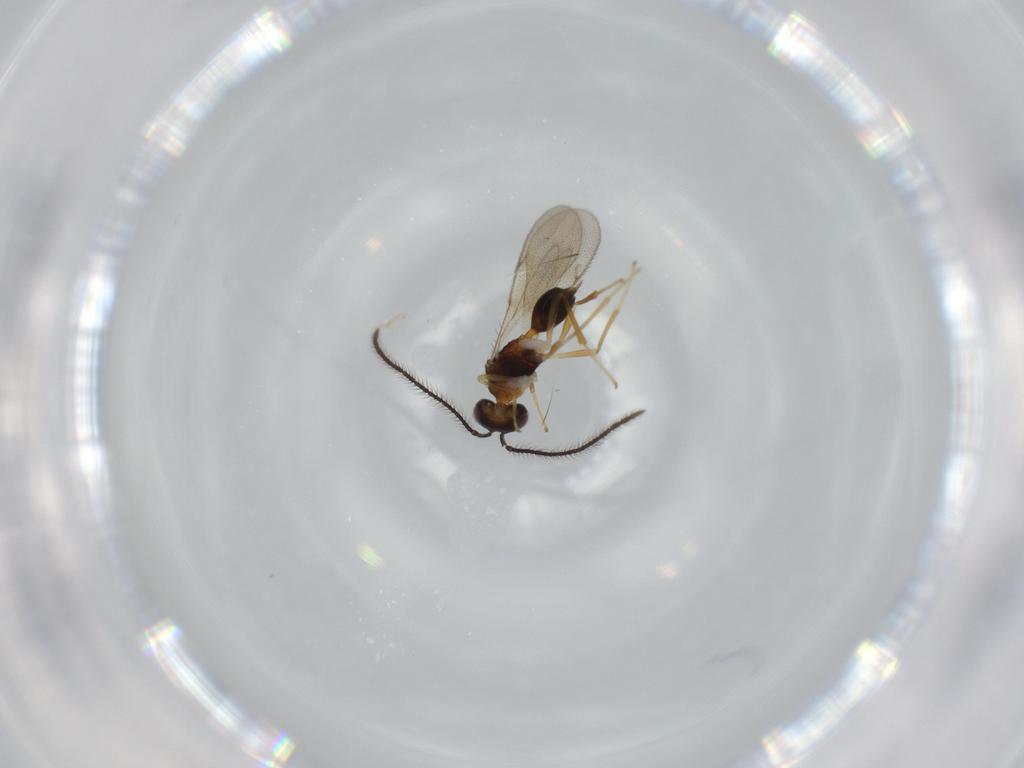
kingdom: Animalia
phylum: Arthropoda
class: Insecta
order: Hymenoptera
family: Diparidae
